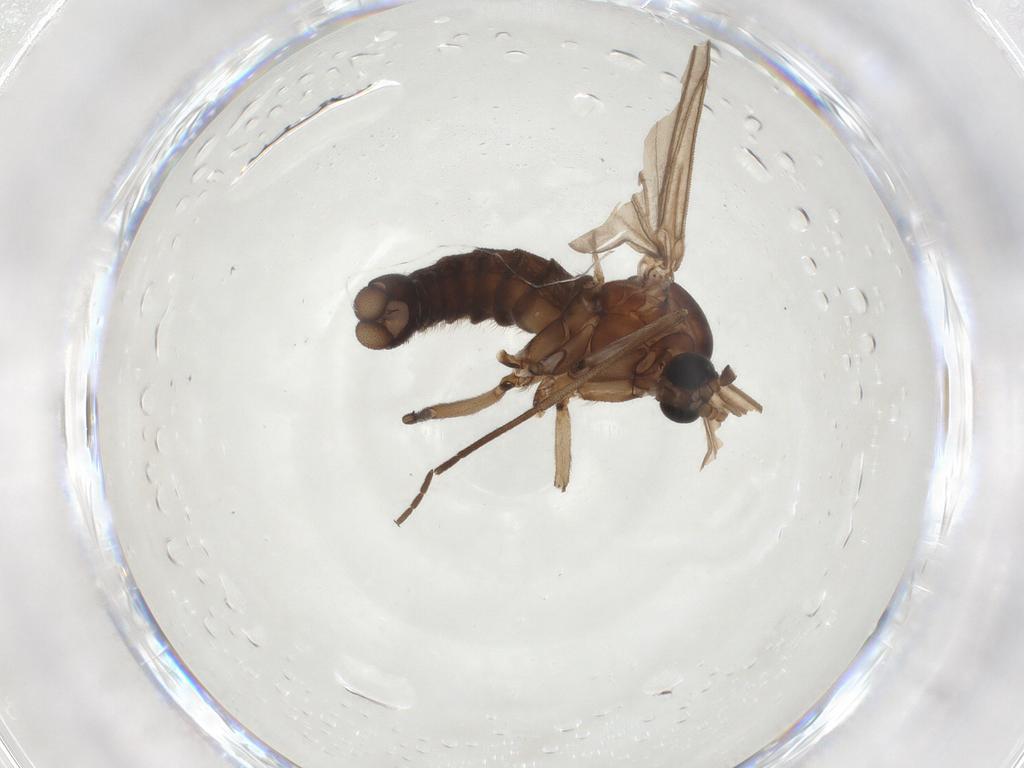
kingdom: Animalia
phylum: Arthropoda
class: Insecta
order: Diptera
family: Sciaridae
